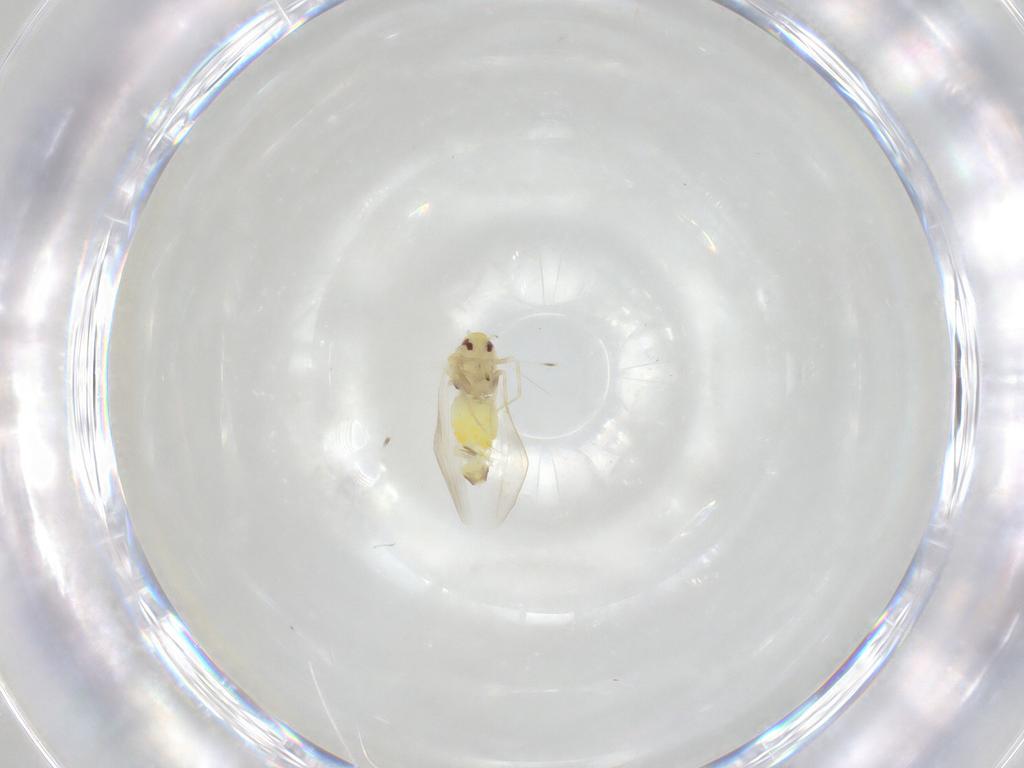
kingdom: Animalia
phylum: Arthropoda
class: Insecta
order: Hemiptera
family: Aleyrodidae
